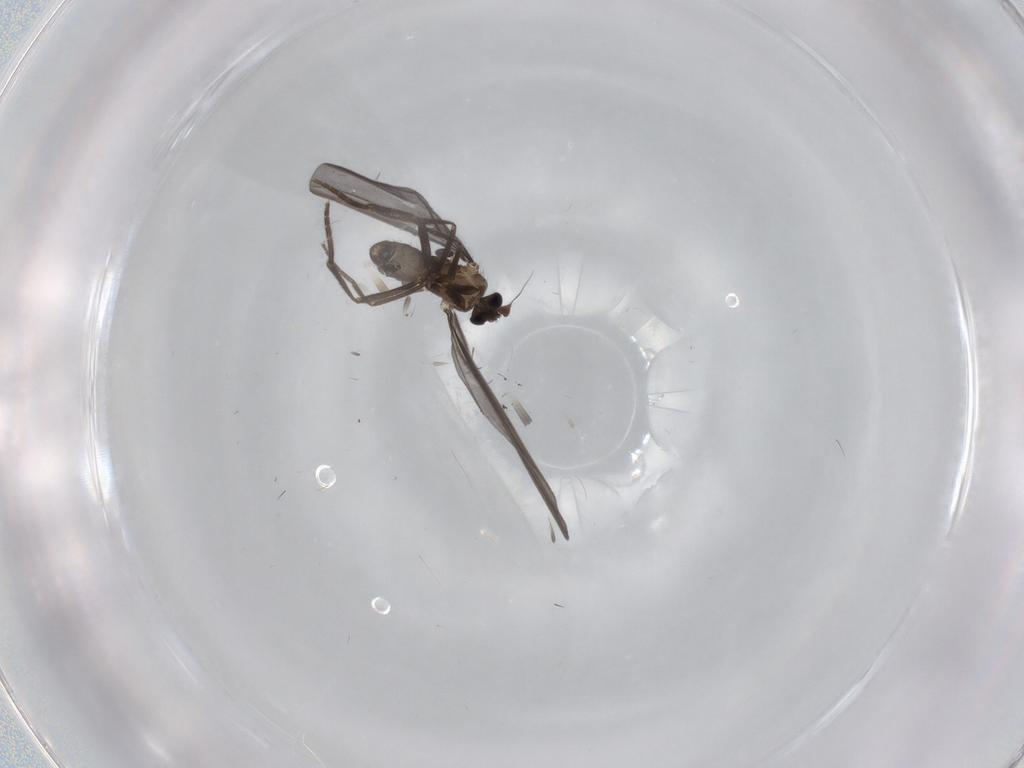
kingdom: Animalia
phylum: Arthropoda
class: Insecta
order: Diptera
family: Phoridae
